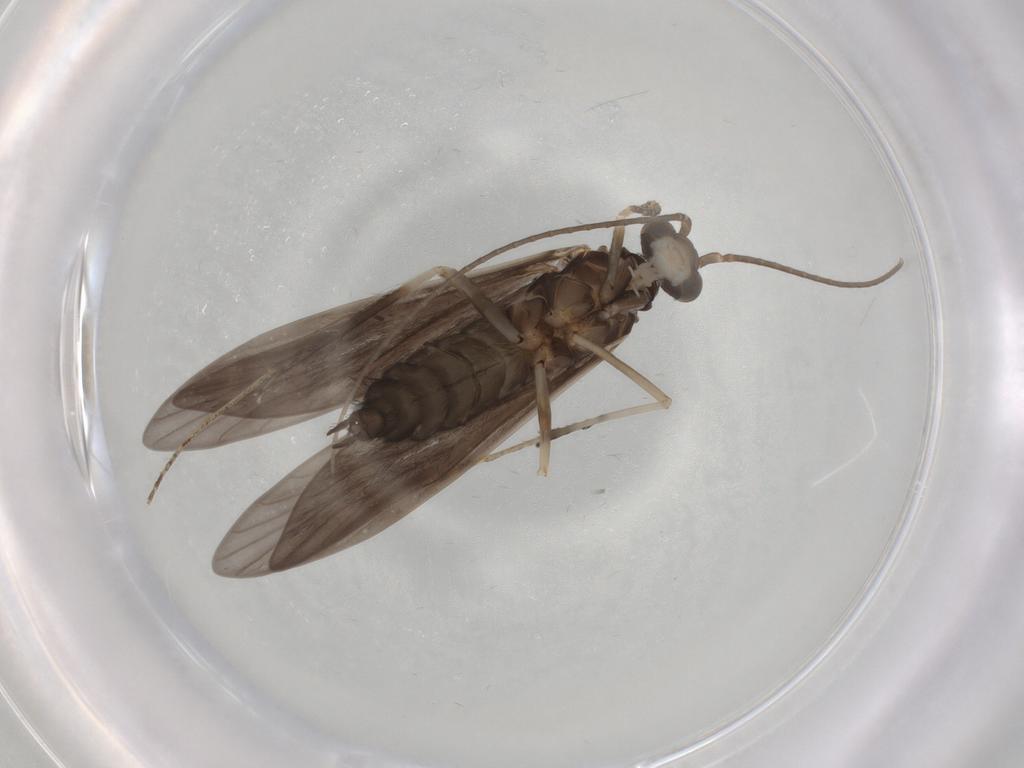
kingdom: Animalia
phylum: Arthropoda
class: Insecta
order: Trichoptera
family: Xiphocentronidae
